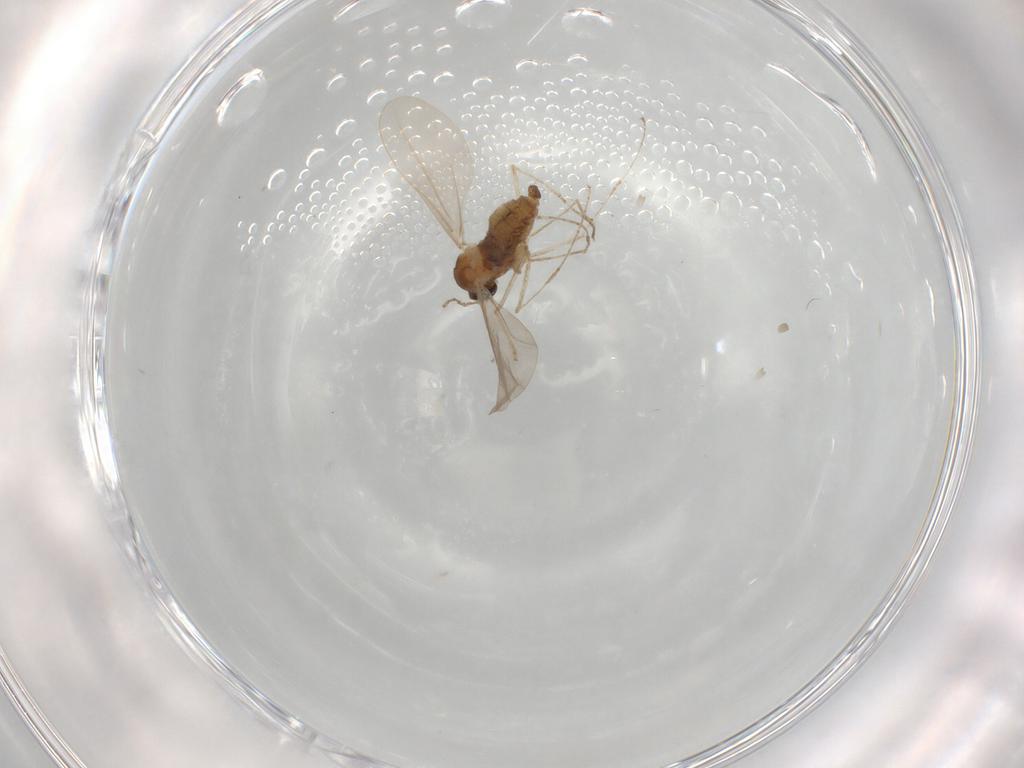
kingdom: Animalia
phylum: Arthropoda
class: Insecta
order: Diptera
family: Cecidomyiidae
